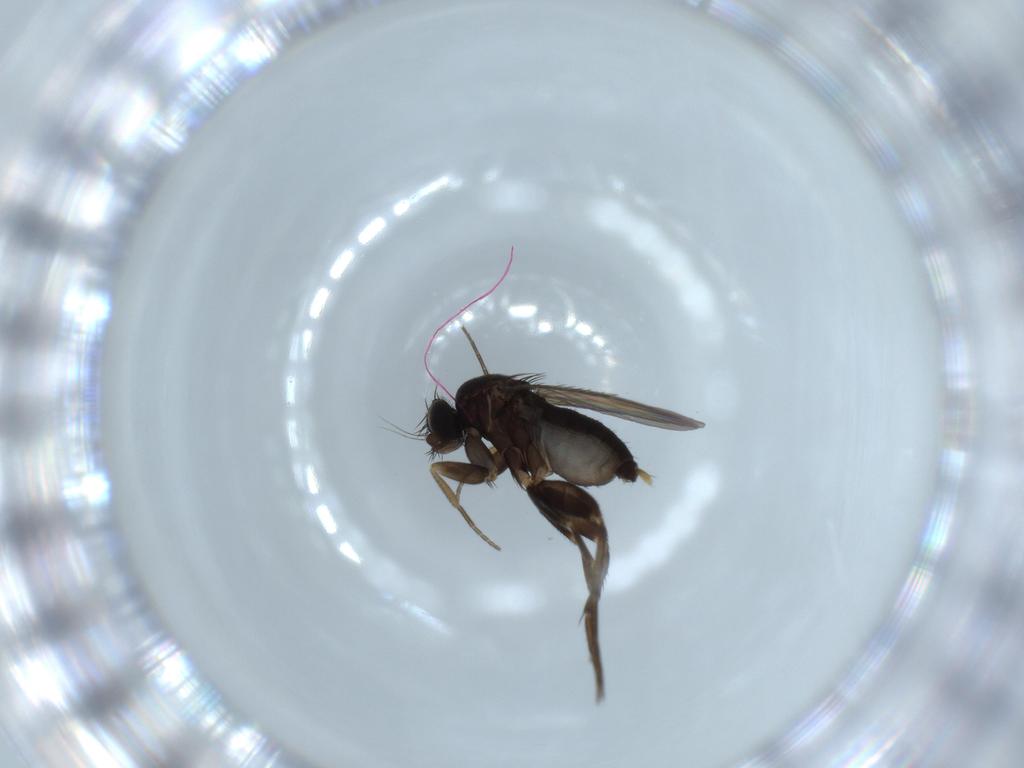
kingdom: Animalia
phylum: Arthropoda
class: Insecta
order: Diptera
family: Phoridae
